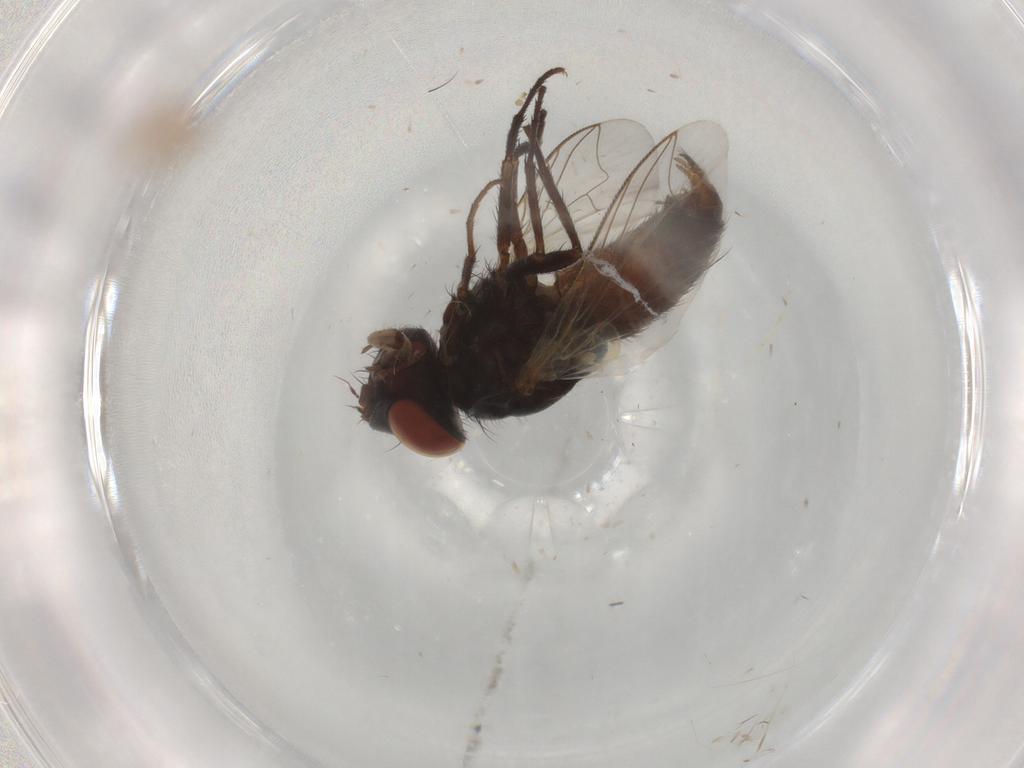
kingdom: Animalia
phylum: Arthropoda
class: Insecta
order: Diptera
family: Sarcophagidae
